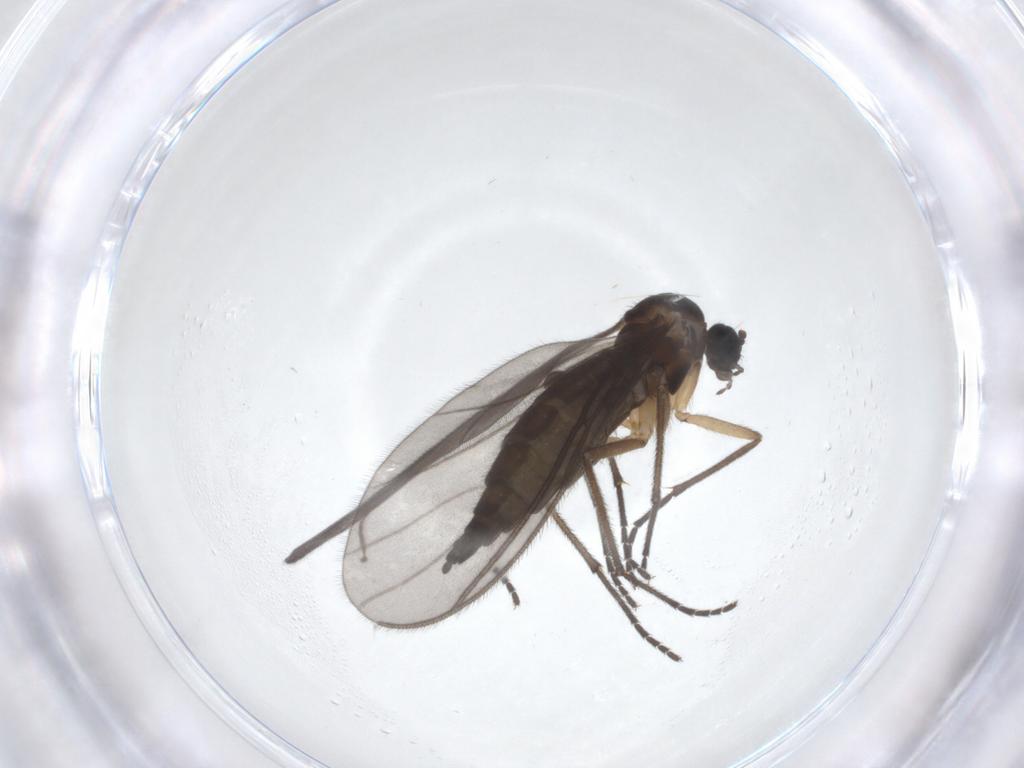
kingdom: Animalia
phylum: Arthropoda
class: Insecta
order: Diptera
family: Sciaridae
